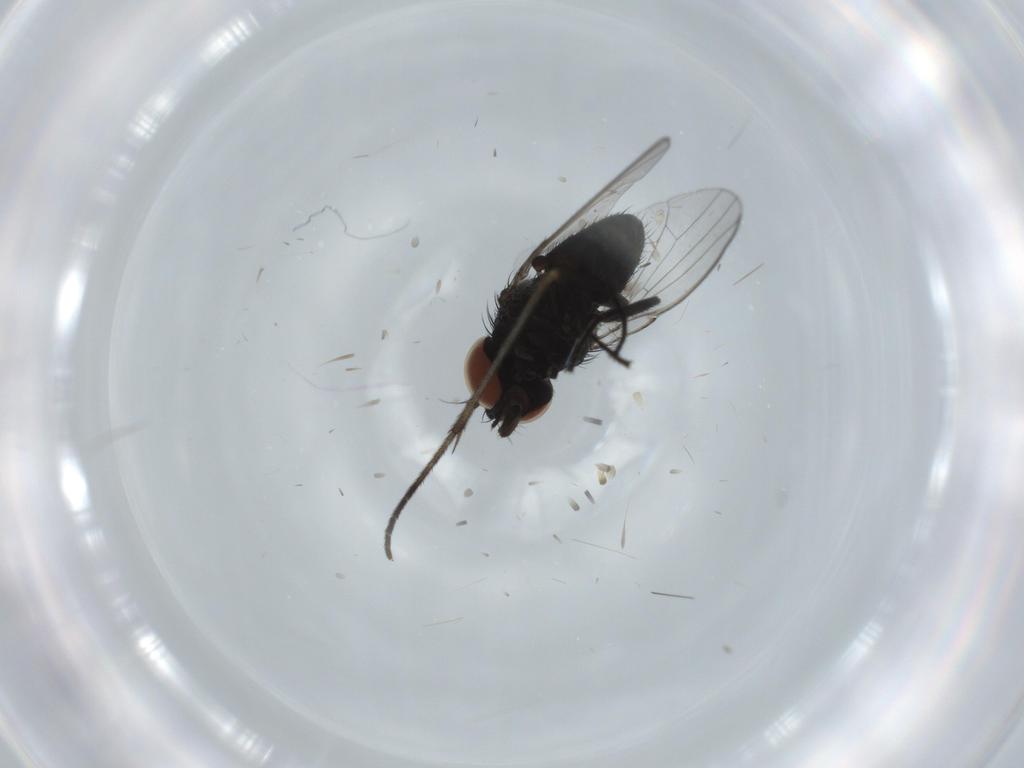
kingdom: Animalia
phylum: Arthropoda
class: Insecta
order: Diptera
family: Milichiidae
